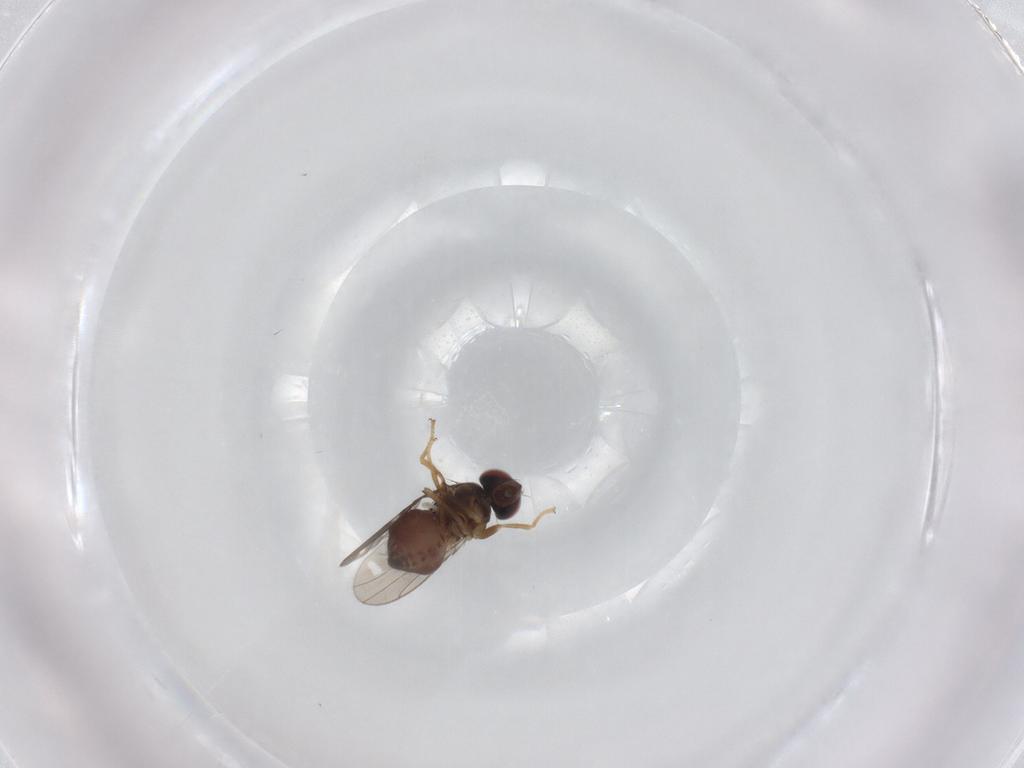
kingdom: Animalia
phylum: Arthropoda
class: Insecta
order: Diptera
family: Ephydridae
